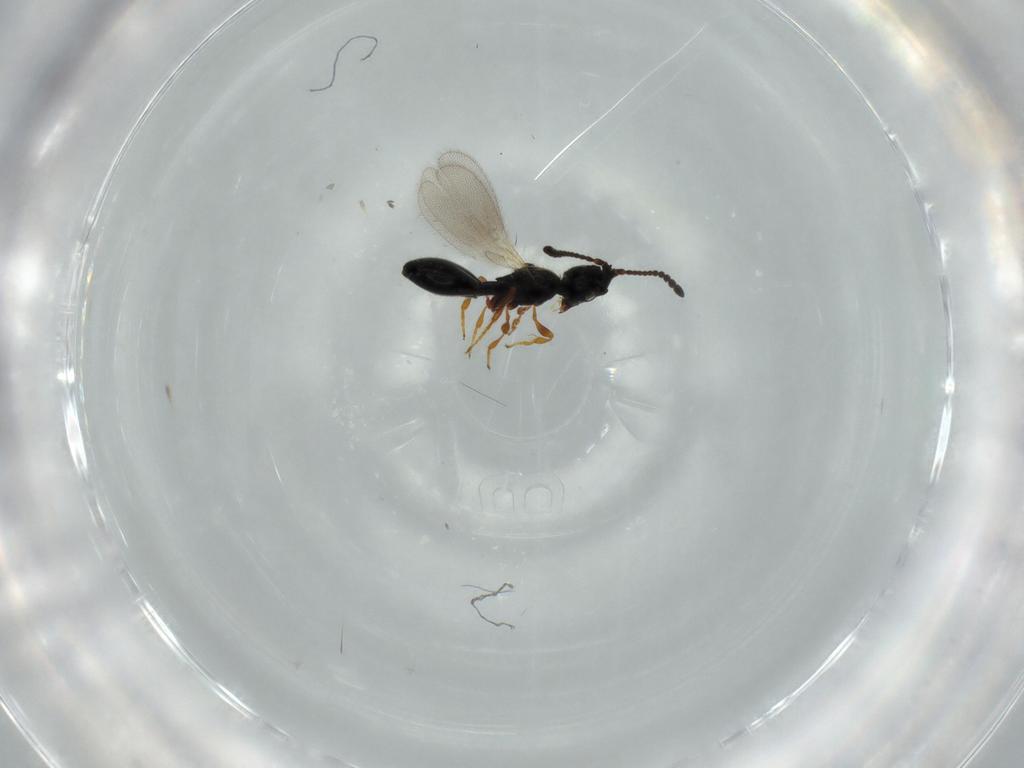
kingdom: Animalia
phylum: Arthropoda
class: Insecta
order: Hymenoptera
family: Diapriidae
